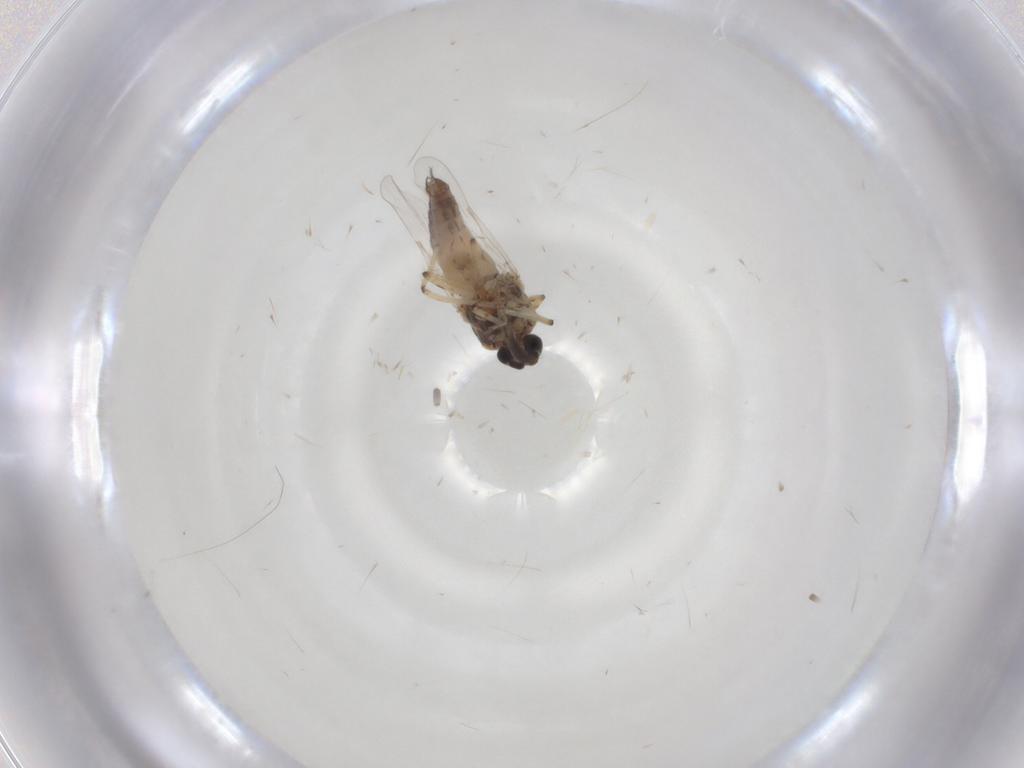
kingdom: Animalia
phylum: Arthropoda
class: Insecta
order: Diptera
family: Ceratopogonidae
